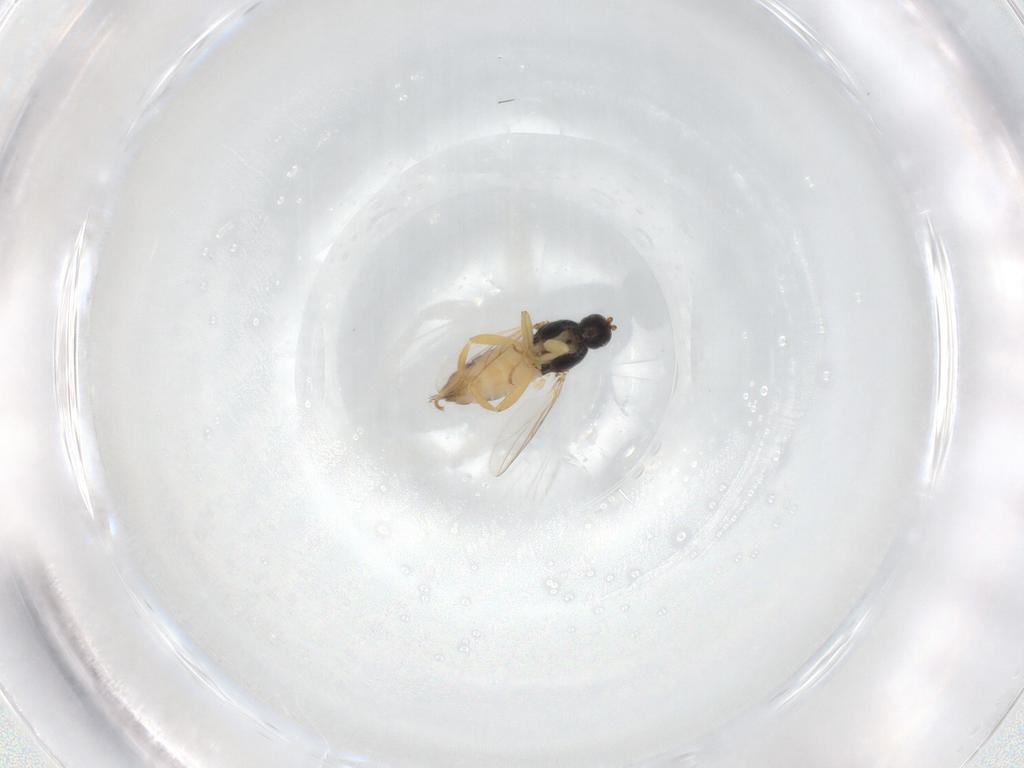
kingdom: Animalia
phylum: Arthropoda
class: Insecta
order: Diptera
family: Hybotidae
